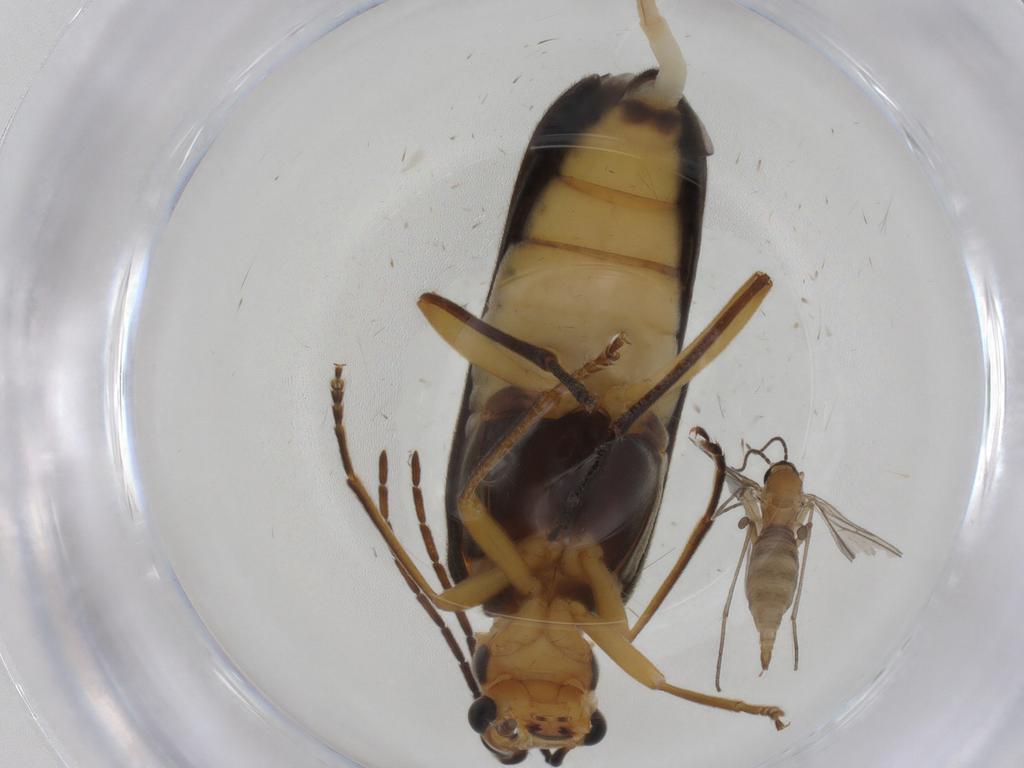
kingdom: Animalia
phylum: Arthropoda
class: Insecta
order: Diptera
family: Sciaridae
